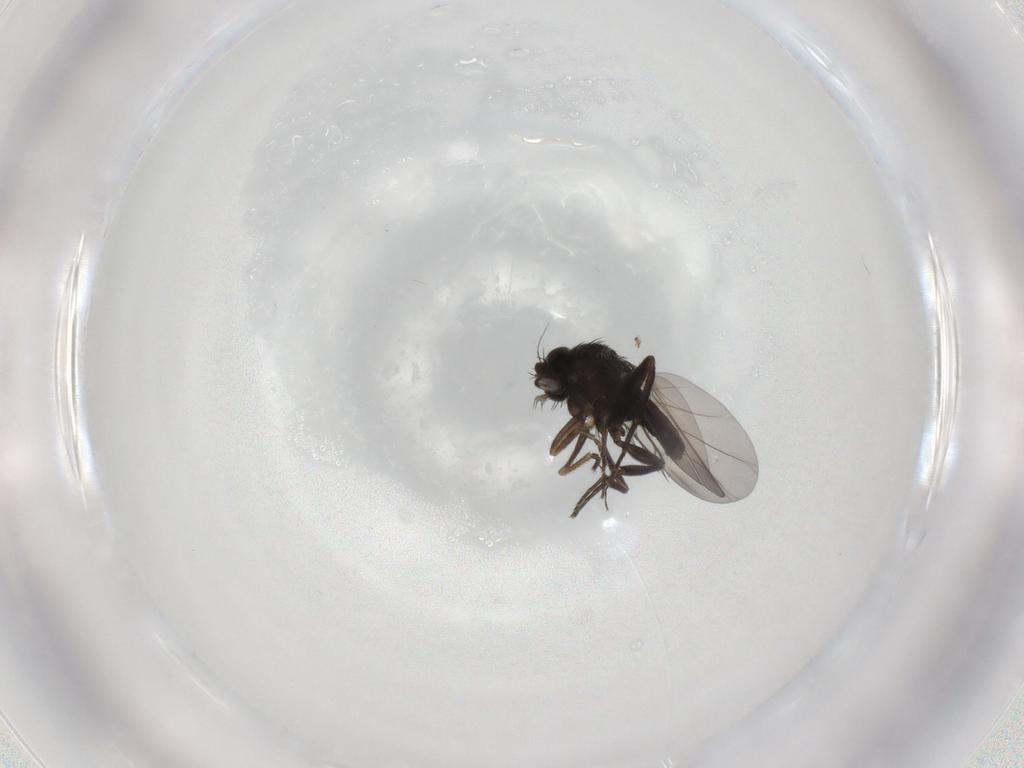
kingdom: Animalia
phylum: Arthropoda
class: Insecta
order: Diptera
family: Phoridae
